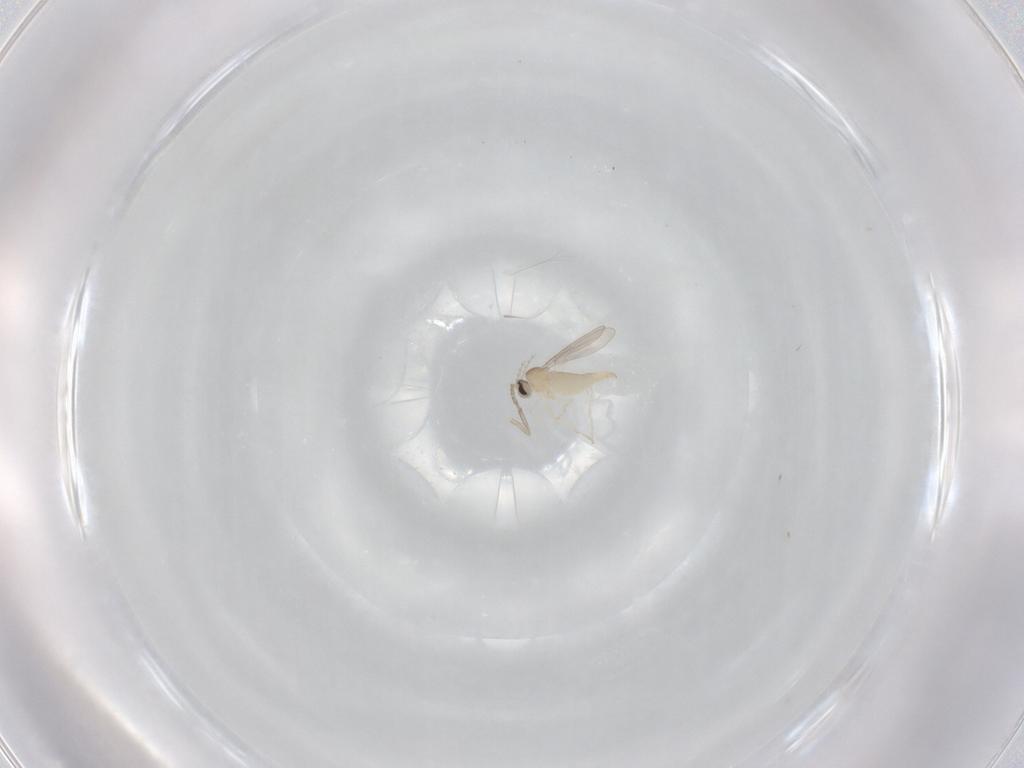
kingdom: Animalia
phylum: Arthropoda
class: Insecta
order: Diptera
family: Cecidomyiidae
